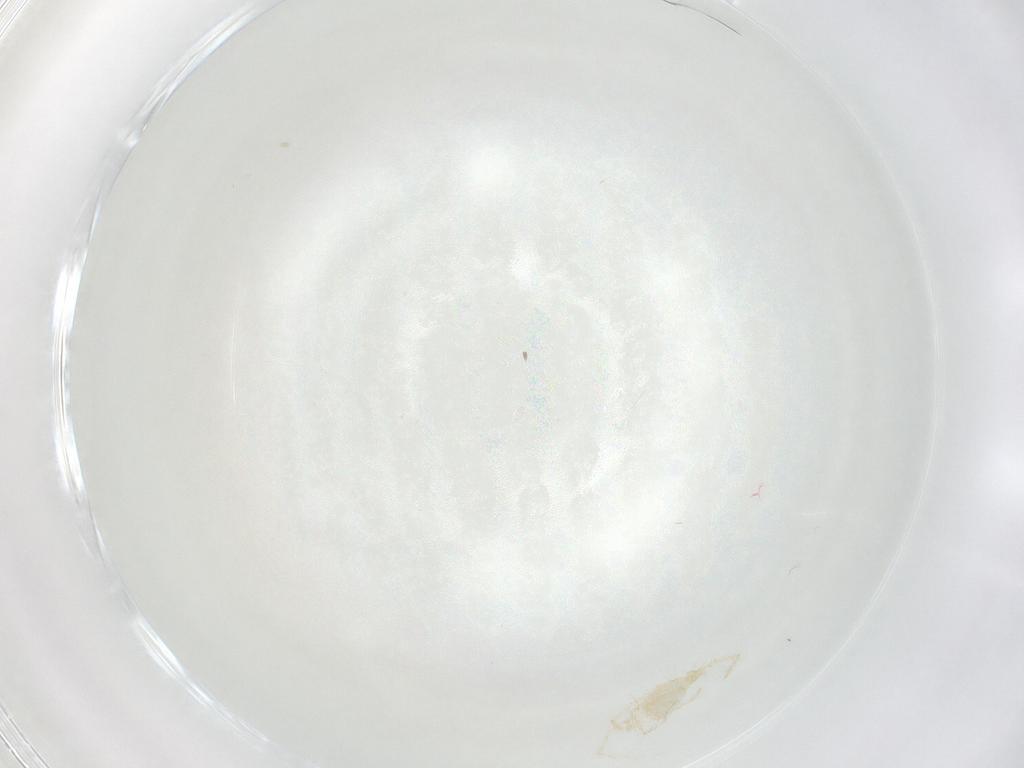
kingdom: Animalia
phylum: Arthropoda
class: Arachnida
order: Trombidiformes
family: Erythraeidae
